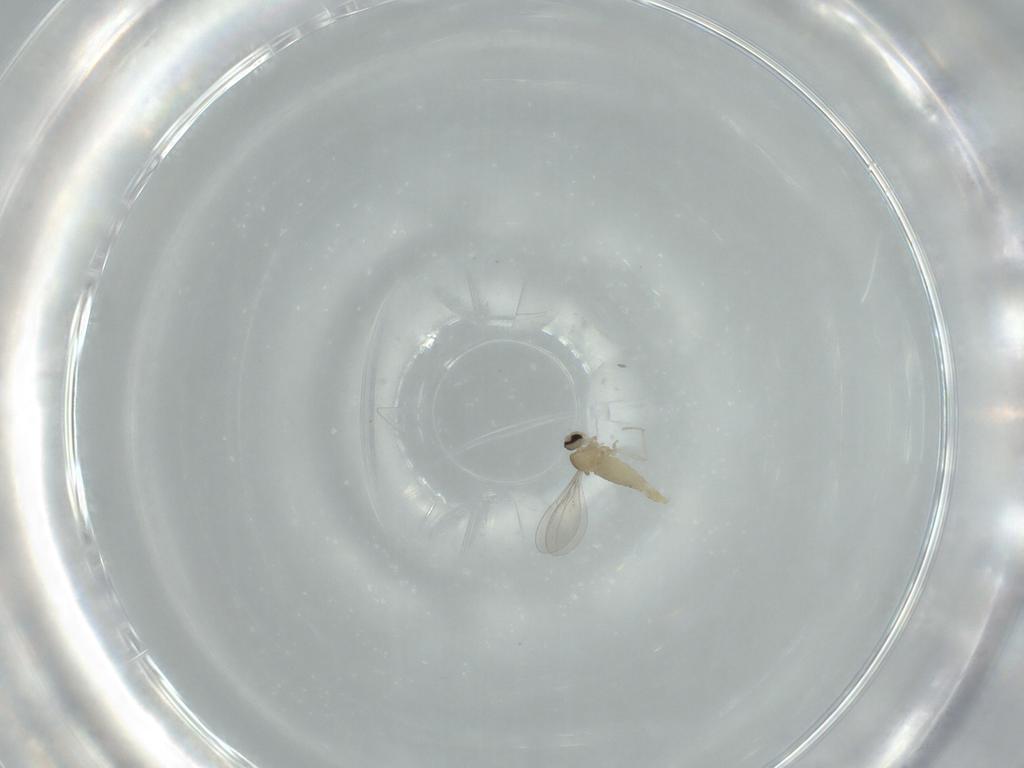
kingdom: Animalia
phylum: Arthropoda
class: Insecta
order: Diptera
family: Cecidomyiidae
